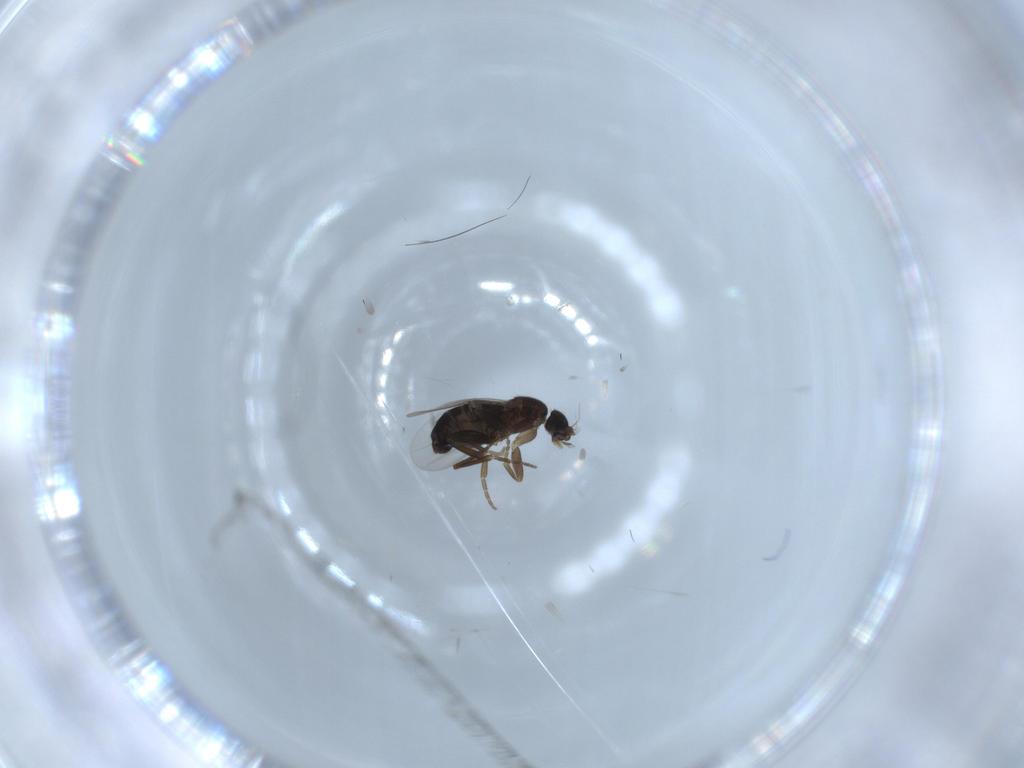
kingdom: Animalia
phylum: Arthropoda
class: Insecta
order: Diptera
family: Phoridae
